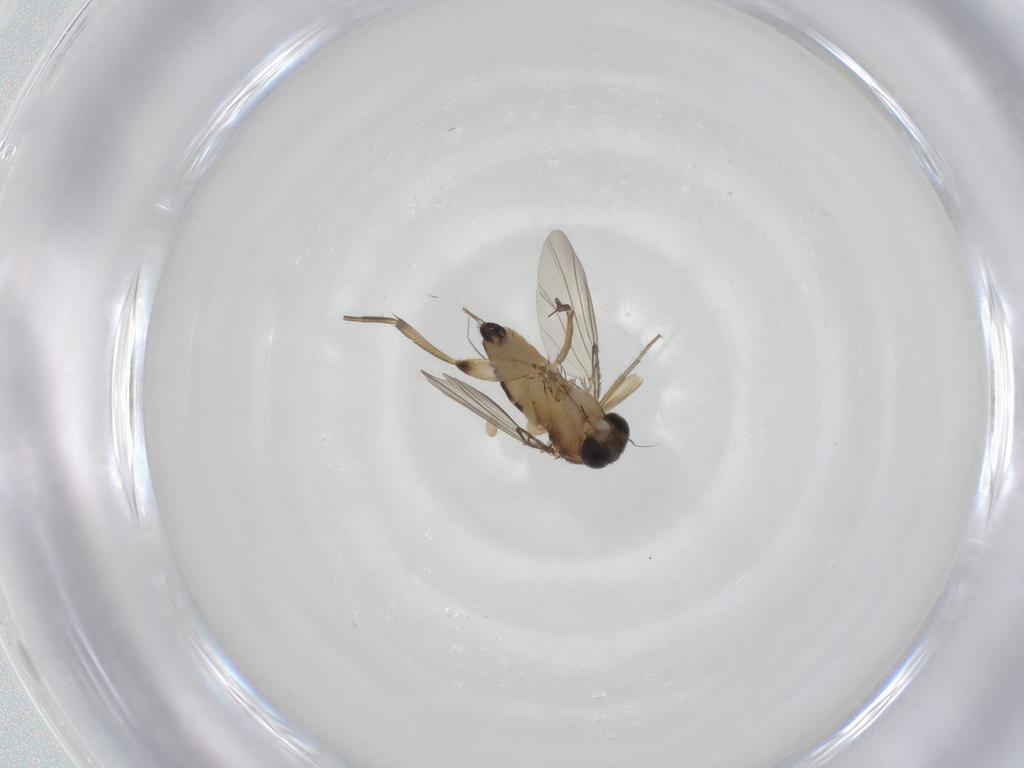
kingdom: Animalia
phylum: Arthropoda
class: Insecta
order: Diptera
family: Phoridae
